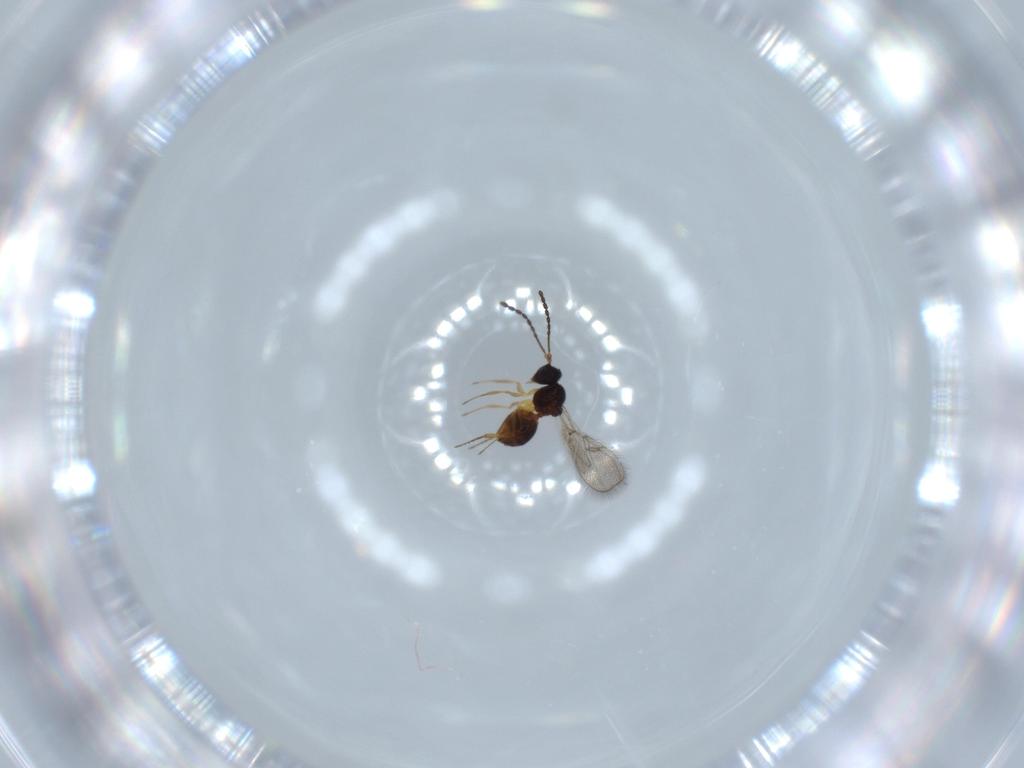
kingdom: Animalia
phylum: Arthropoda
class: Insecta
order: Hymenoptera
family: Figitidae
